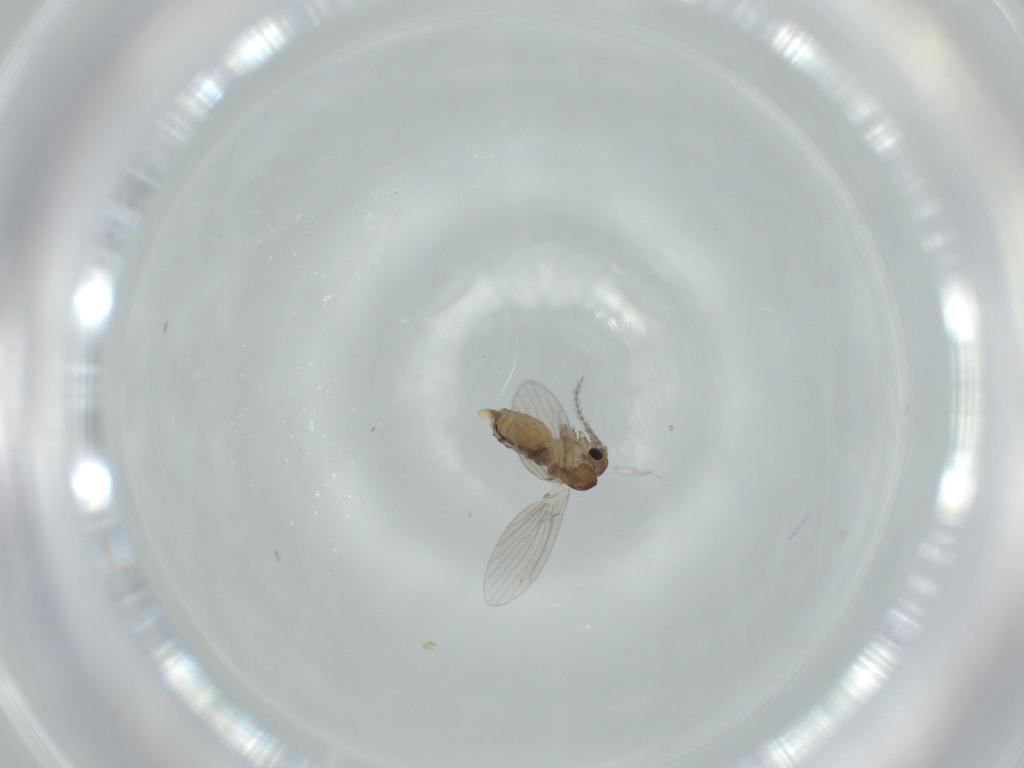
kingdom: Animalia
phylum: Arthropoda
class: Insecta
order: Diptera
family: Psychodidae
